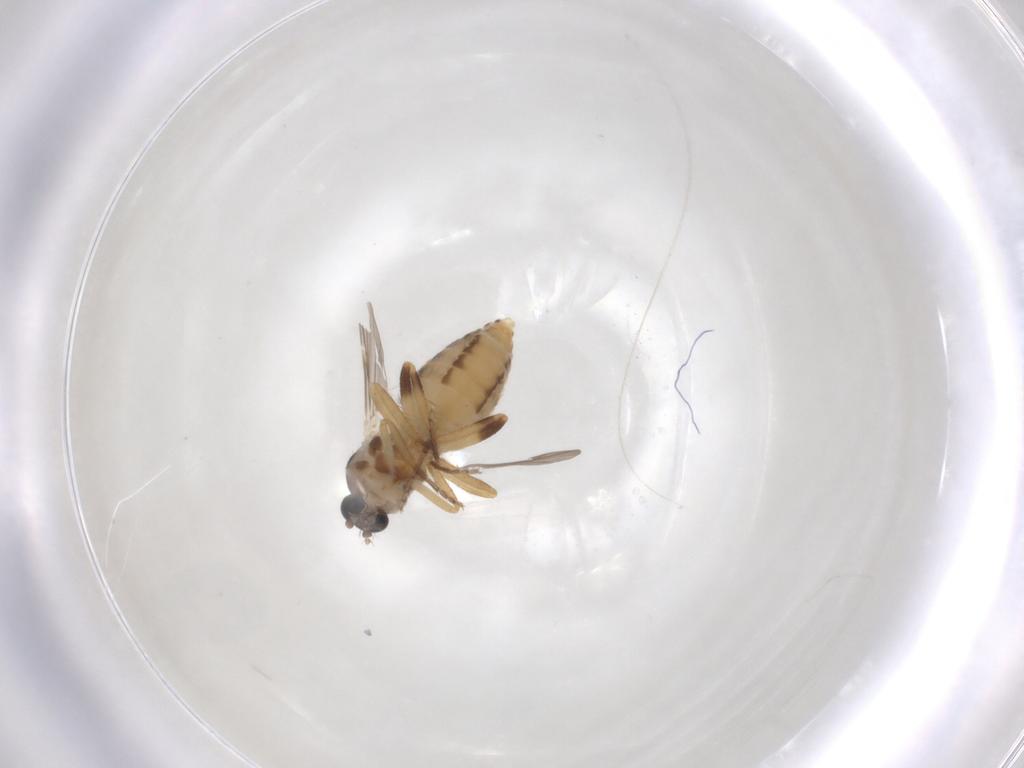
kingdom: Animalia
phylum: Arthropoda
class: Insecta
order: Diptera
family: Ceratopogonidae
